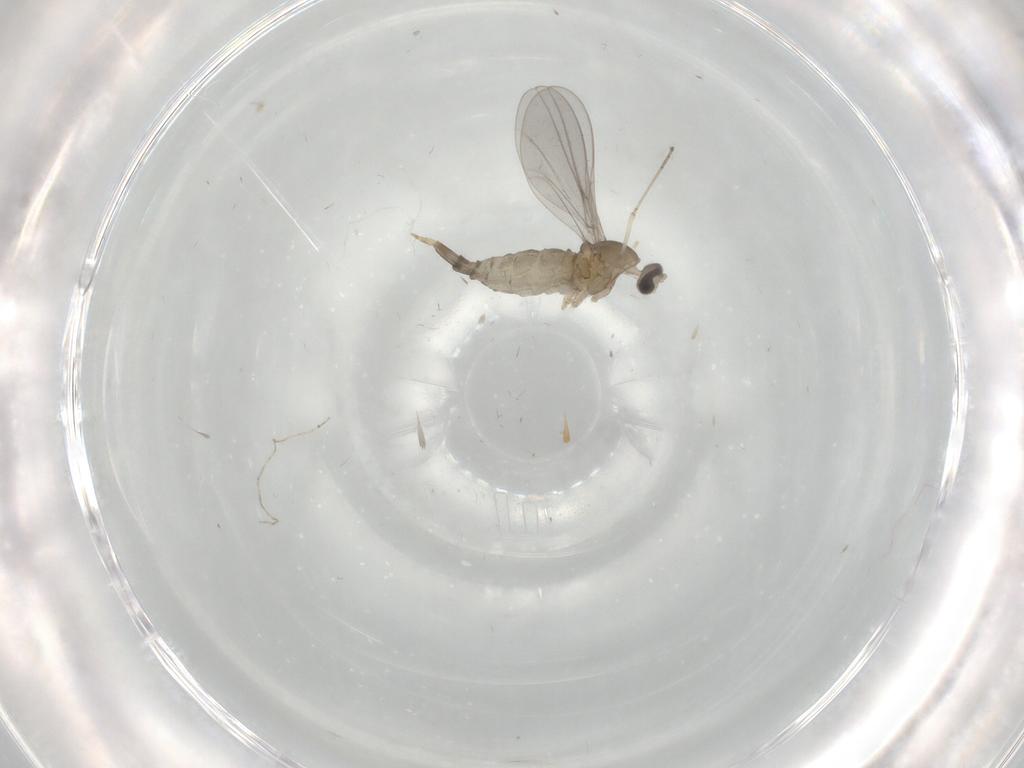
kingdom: Animalia
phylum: Arthropoda
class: Insecta
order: Diptera
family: Cecidomyiidae
